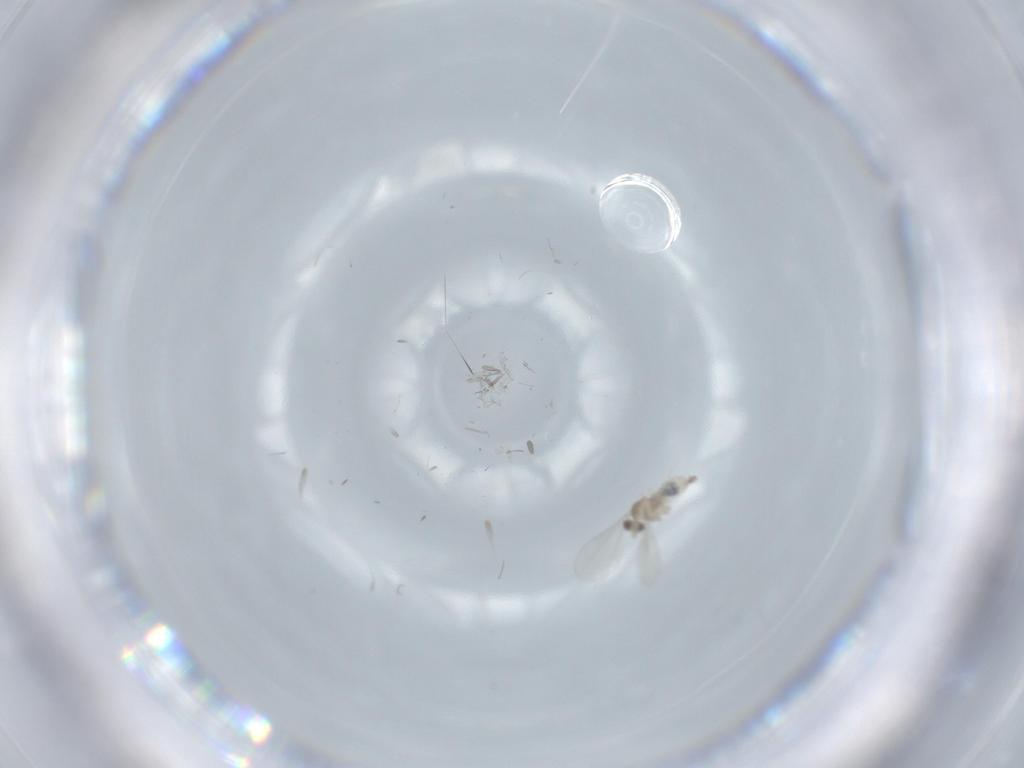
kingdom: Animalia
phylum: Arthropoda
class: Insecta
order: Diptera
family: Cecidomyiidae
